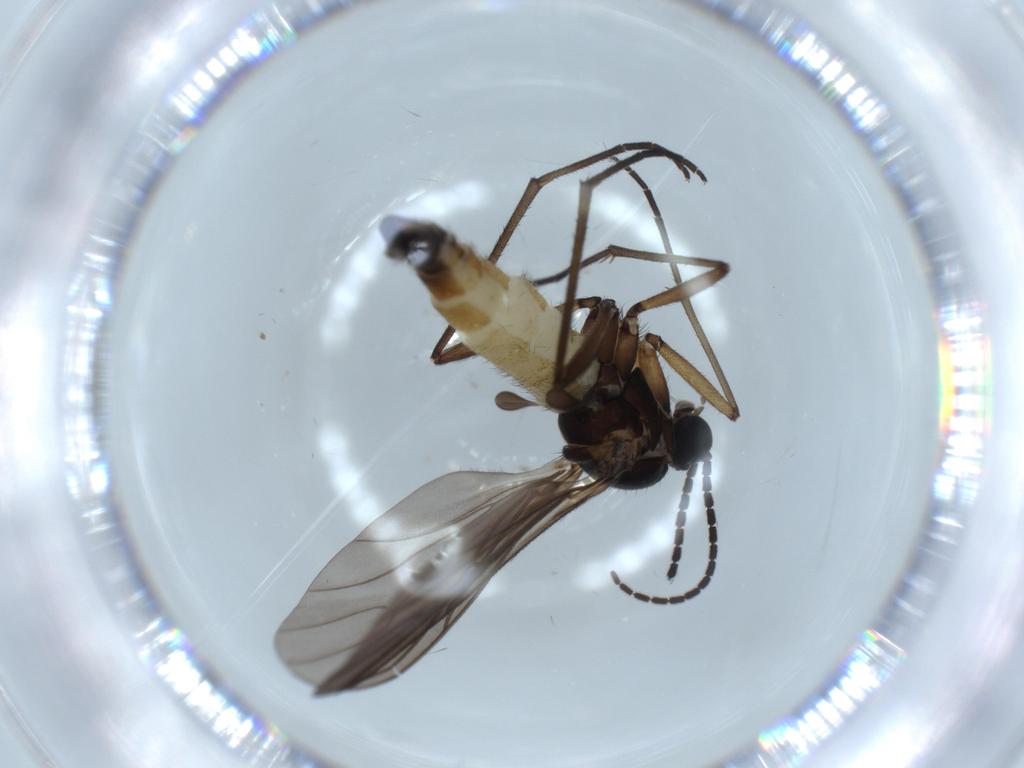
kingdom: Animalia
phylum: Arthropoda
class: Insecta
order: Diptera
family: Sciaridae
